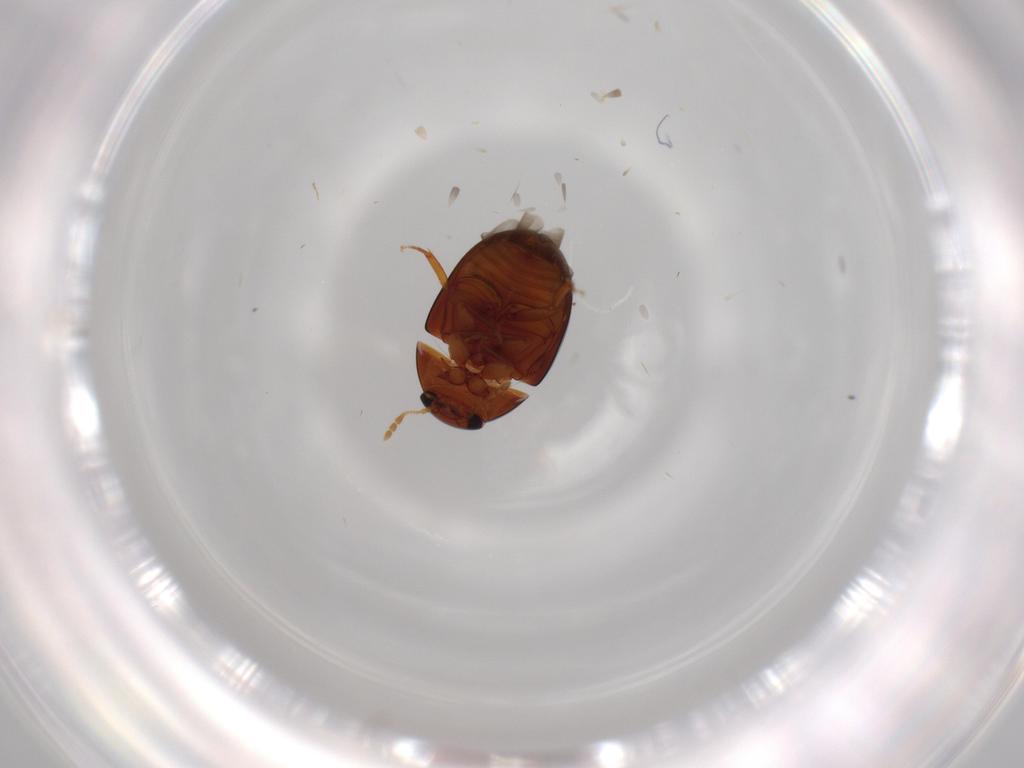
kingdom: Animalia
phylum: Arthropoda
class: Insecta
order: Coleoptera
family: Phalacridae
